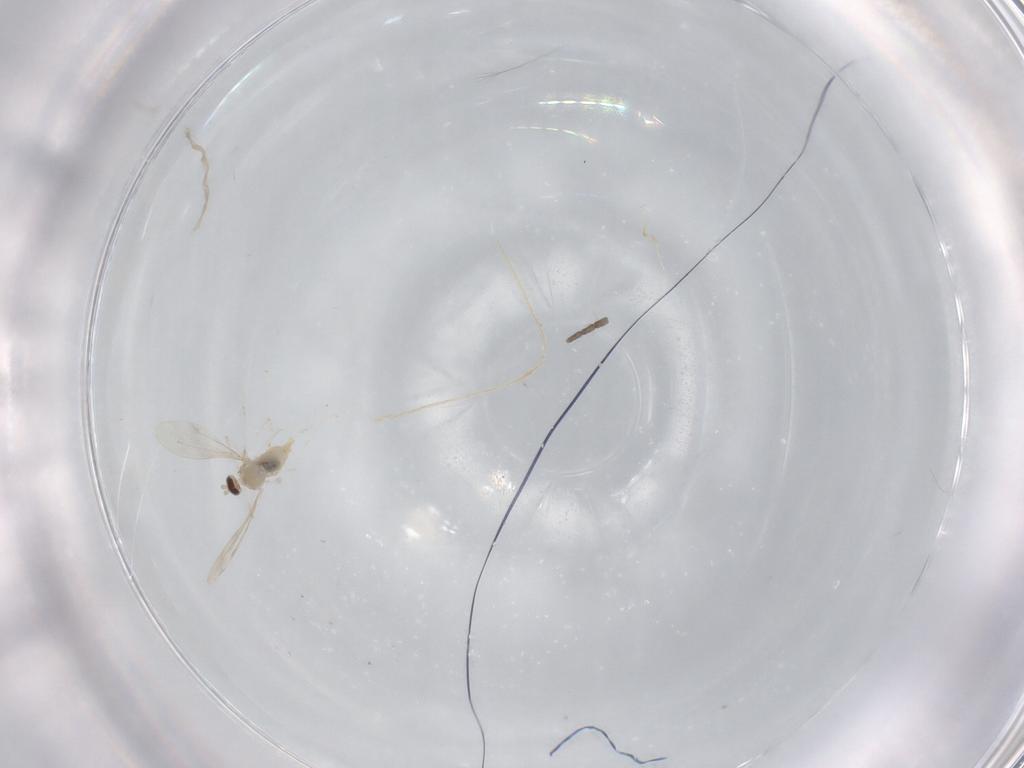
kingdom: Animalia
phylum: Arthropoda
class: Insecta
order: Diptera
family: Cecidomyiidae
